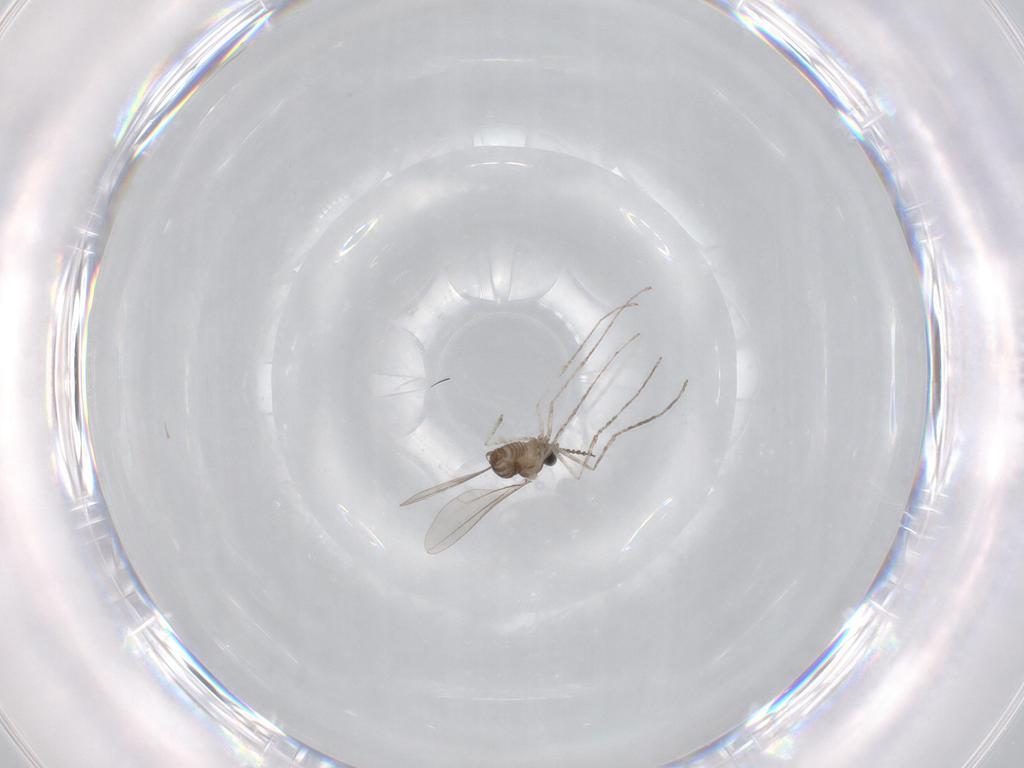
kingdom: Animalia
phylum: Arthropoda
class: Insecta
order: Diptera
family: Cecidomyiidae
